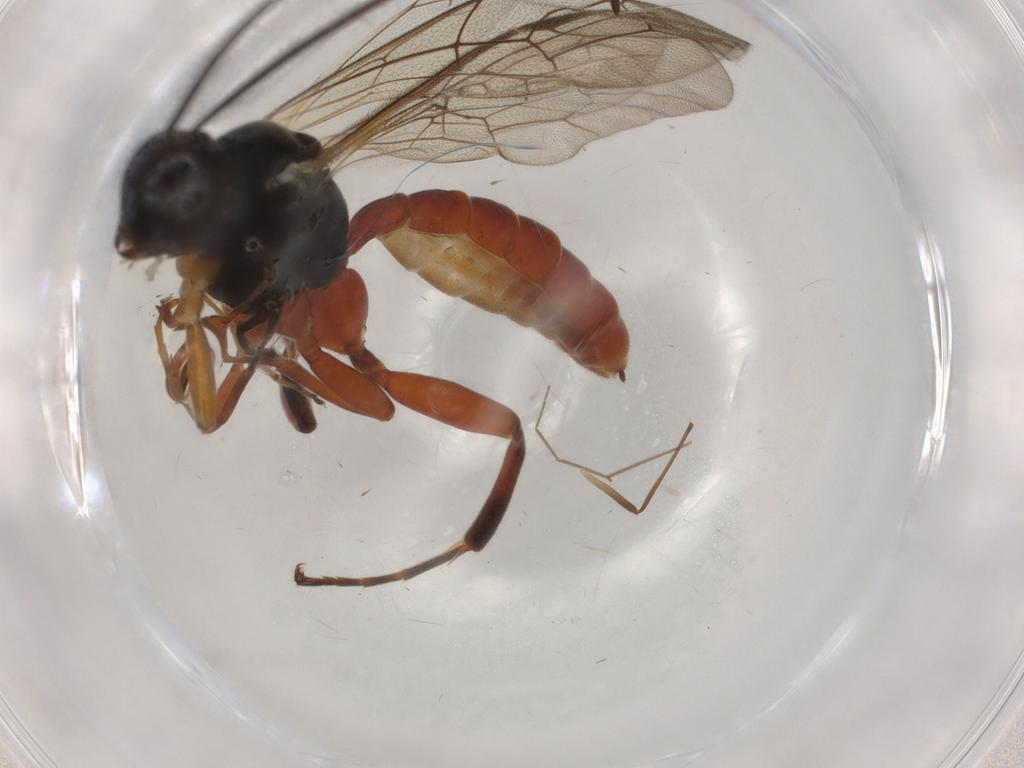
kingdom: Animalia
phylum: Arthropoda
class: Insecta
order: Hymenoptera
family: Ichneumonidae
